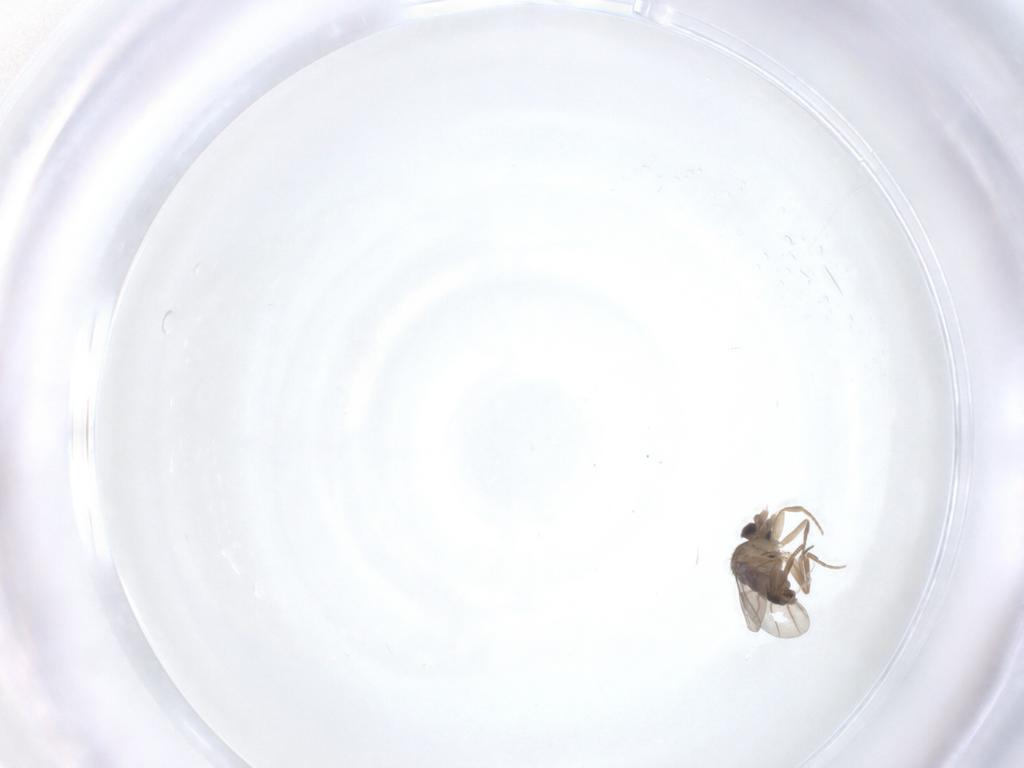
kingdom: Animalia
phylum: Arthropoda
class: Insecta
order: Diptera
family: Phoridae
